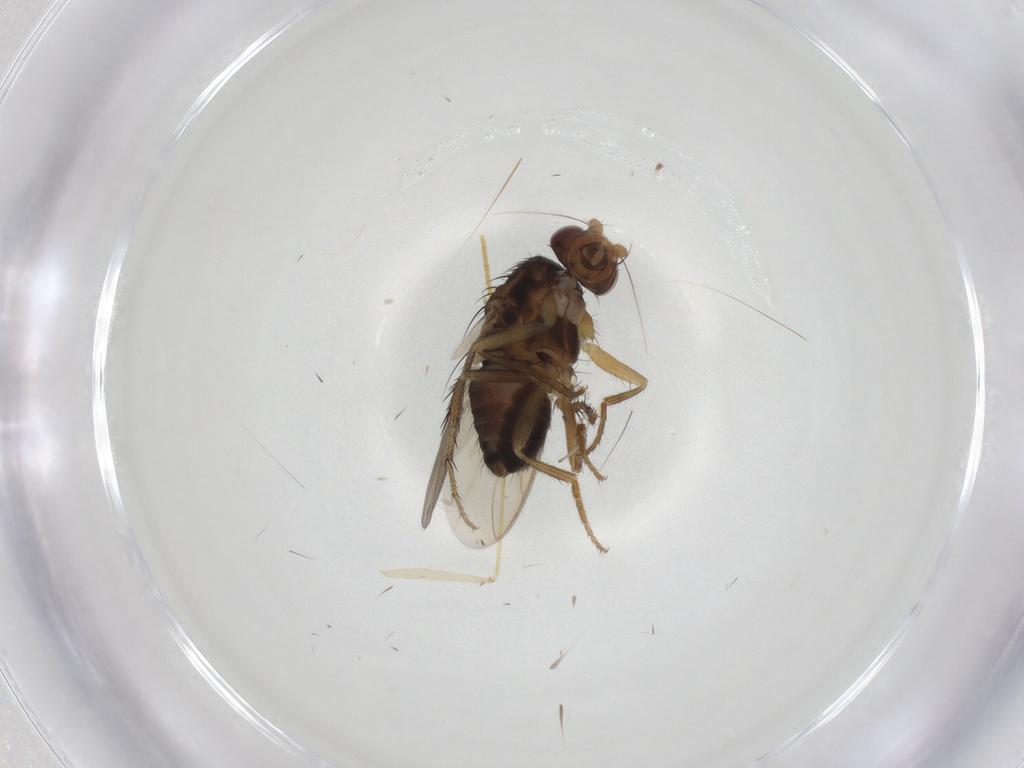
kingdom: Animalia
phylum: Arthropoda
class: Insecta
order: Diptera
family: Sphaeroceridae
